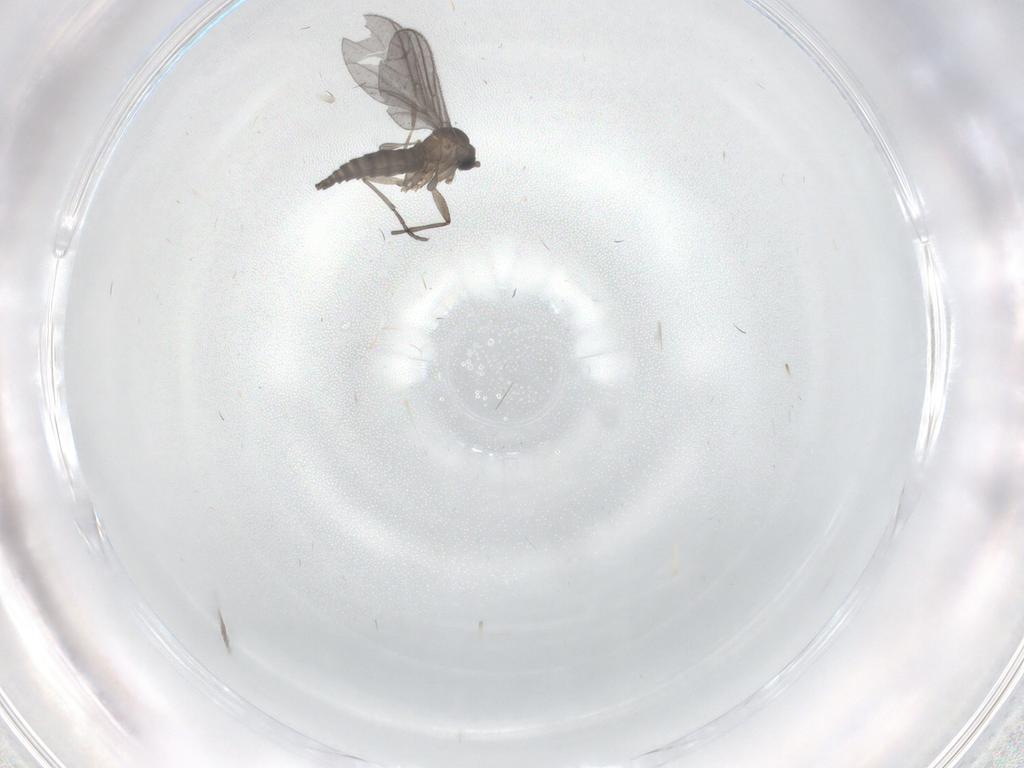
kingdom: Animalia
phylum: Arthropoda
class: Insecta
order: Diptera
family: Sciaridae
